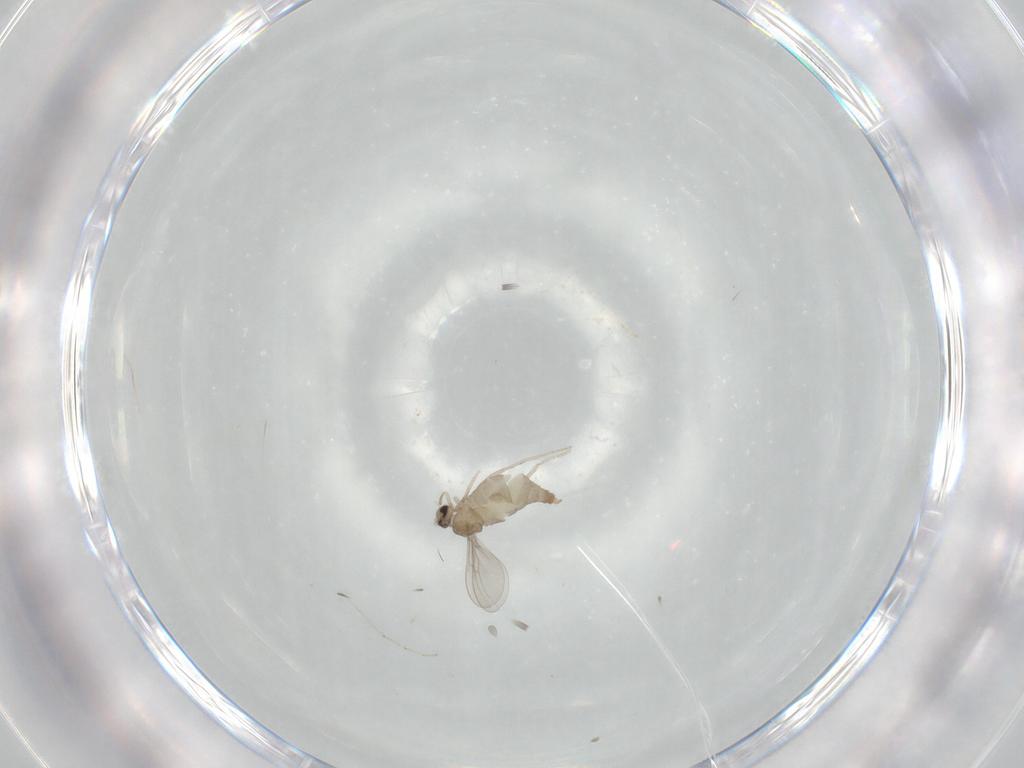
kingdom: Animalia
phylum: Arthropoda
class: Insecta
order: Diptera
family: Cecidomyiidae
